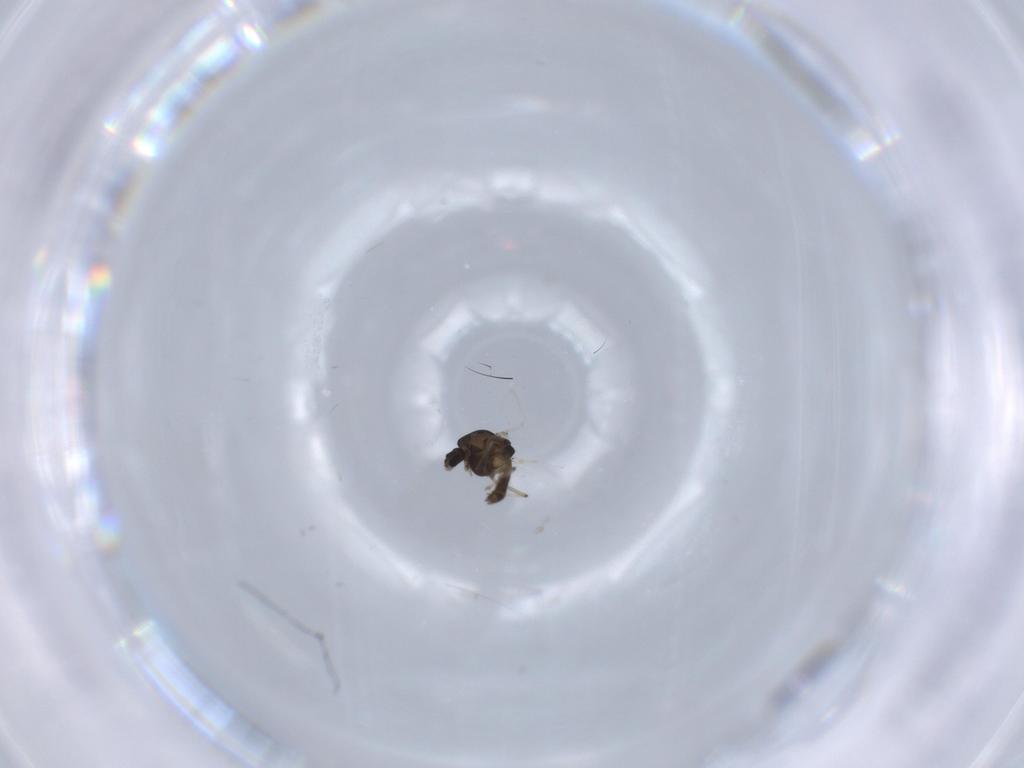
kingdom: Animalia
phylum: Arthropoda
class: Insecta
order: Diptera
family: Chironomidae
